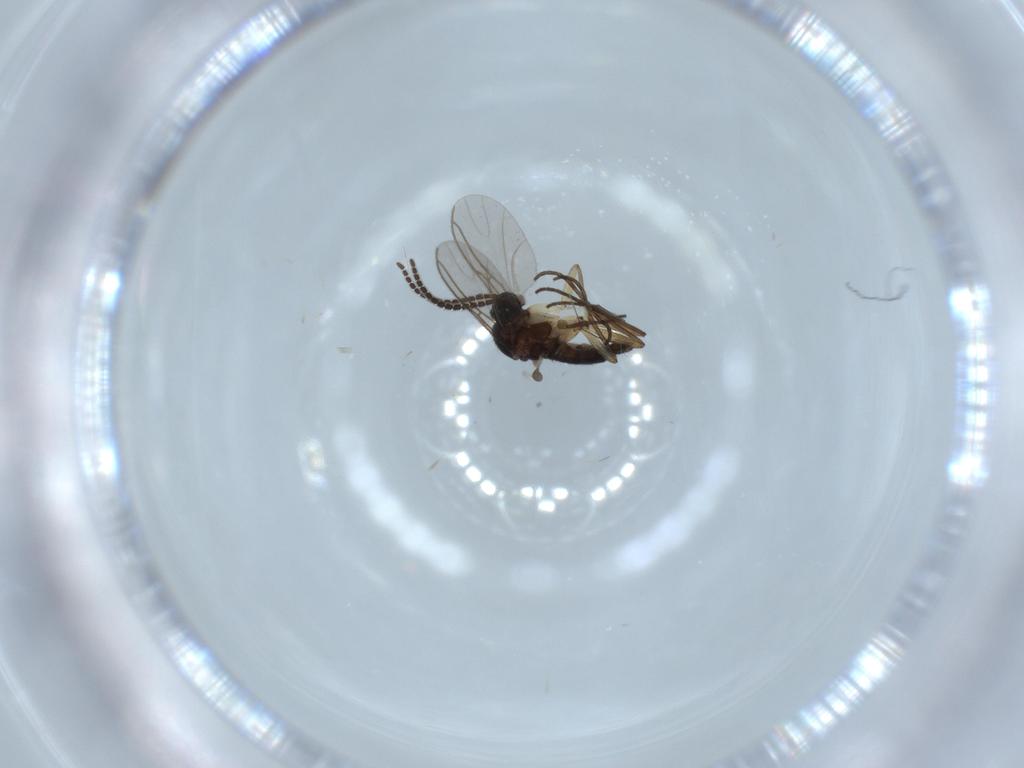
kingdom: Animalia
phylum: Arthropoda
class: Insecta
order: Diptera
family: Sciaridae
